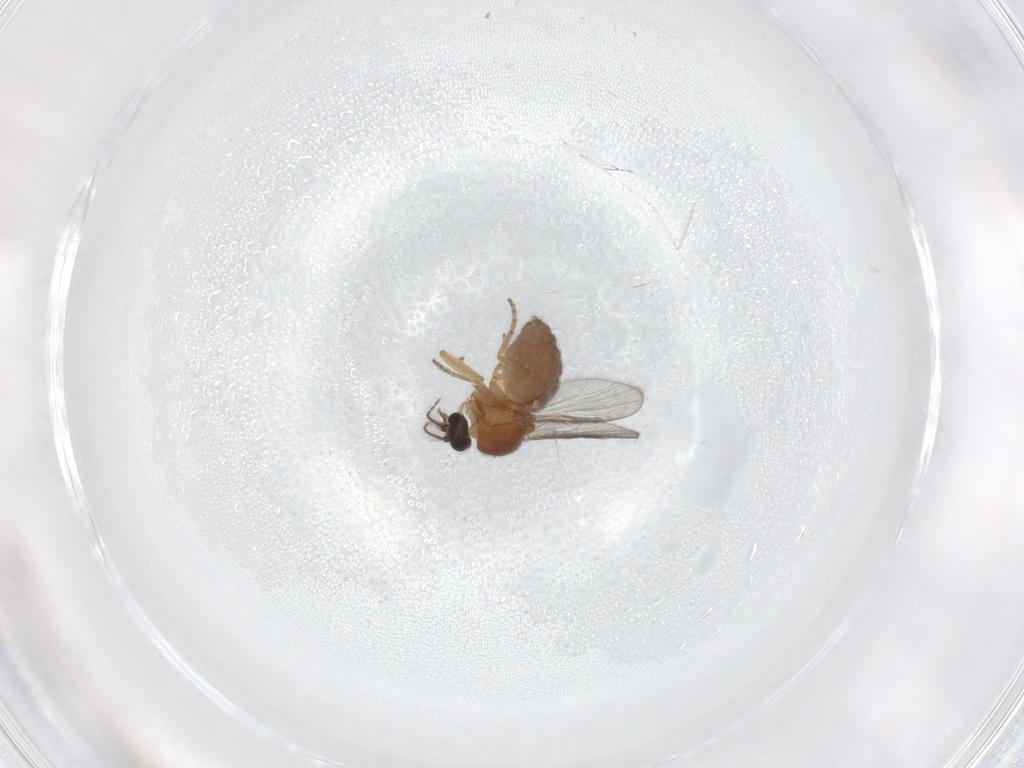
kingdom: Animalia
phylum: Arthropoda
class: Insecta
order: Diptera
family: Ceratopogonidae
